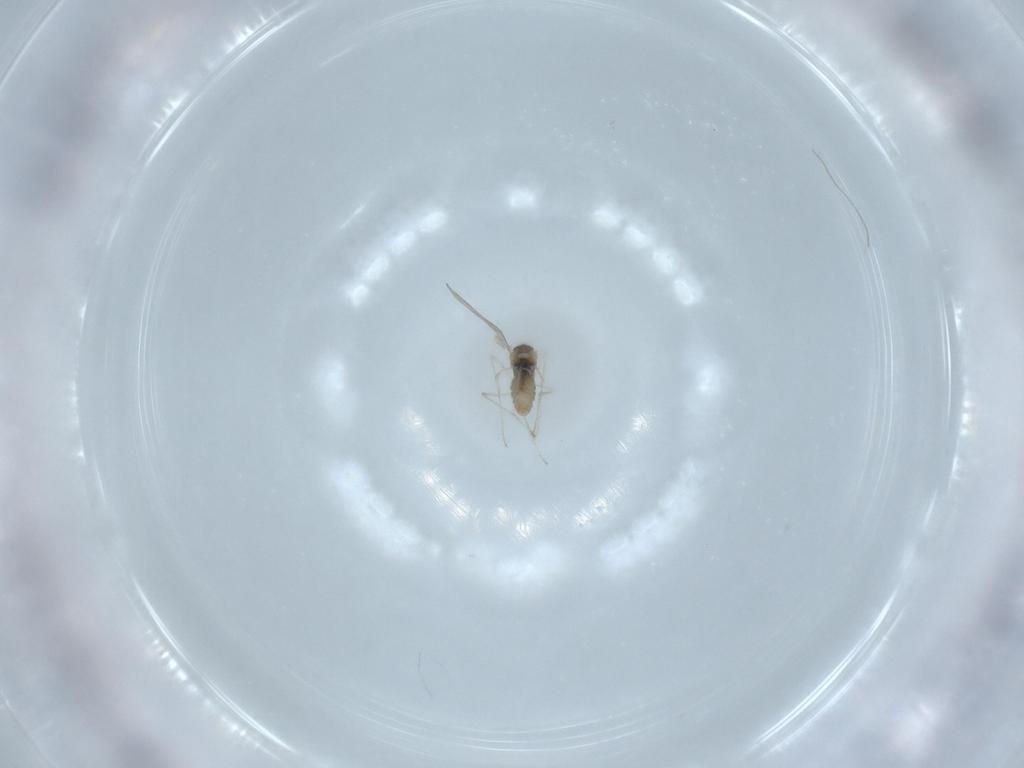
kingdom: Animalia
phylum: Arthropoda
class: Insecta
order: Diptera
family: Cecidomyiidae
